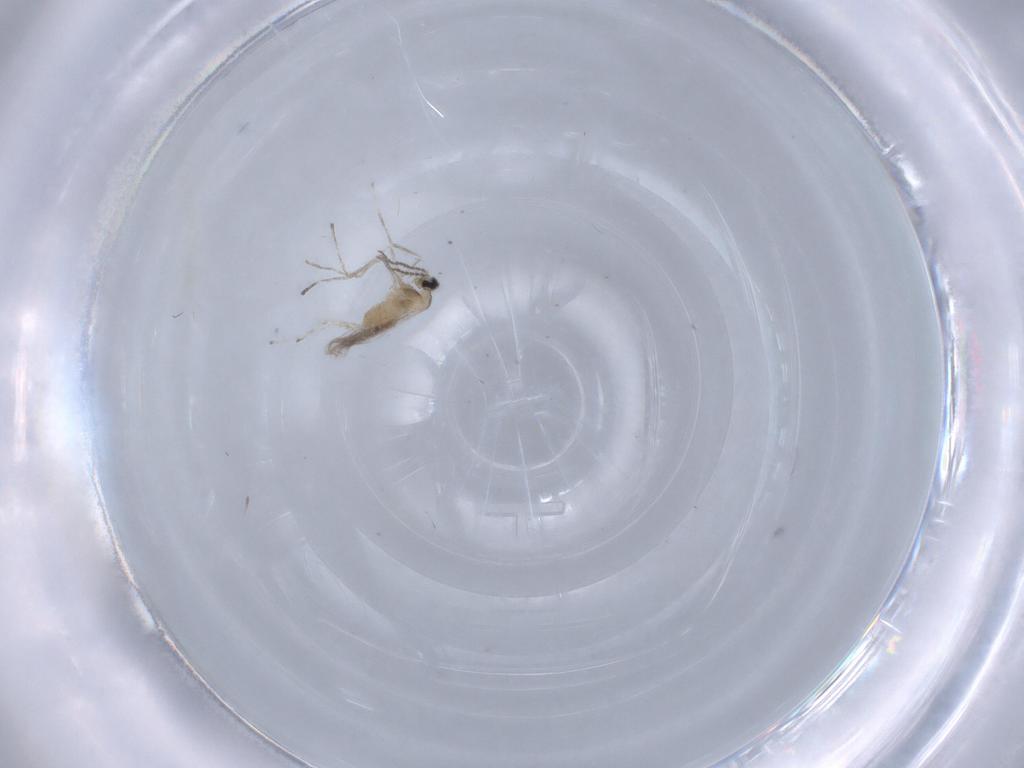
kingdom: Animalia
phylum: Arthropoda
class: Insecta
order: Diptera
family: Cecidomyiidae
